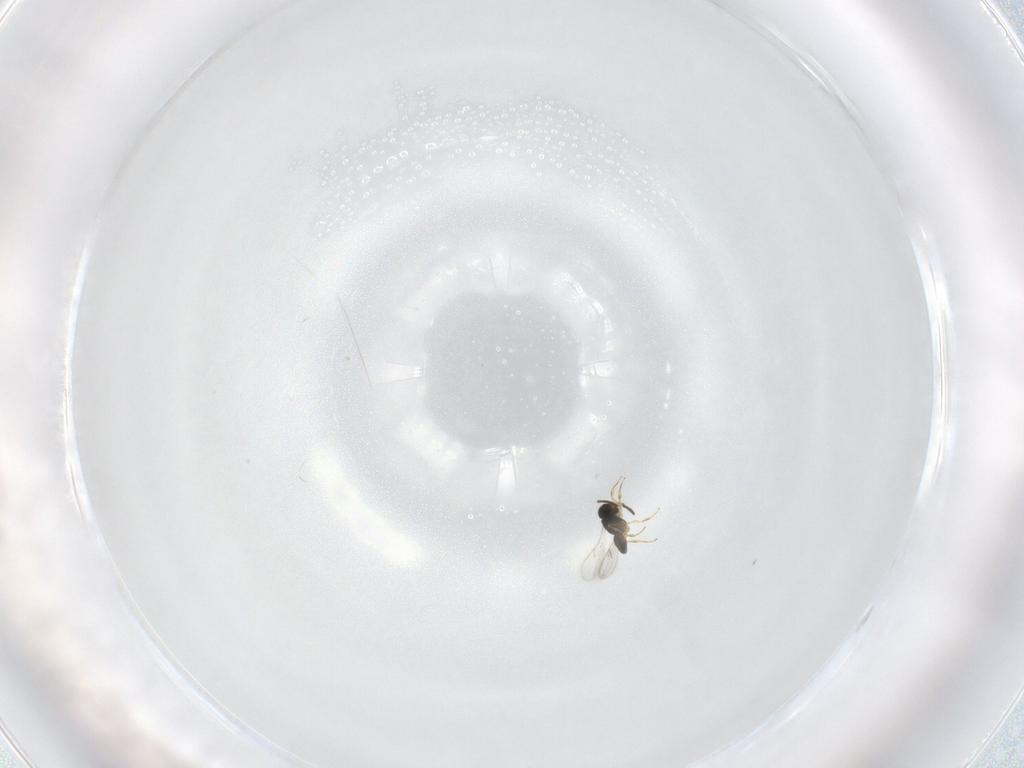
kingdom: Animalia
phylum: Arthropoda
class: Insecta
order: Hymenoptera
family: Scelionidae
